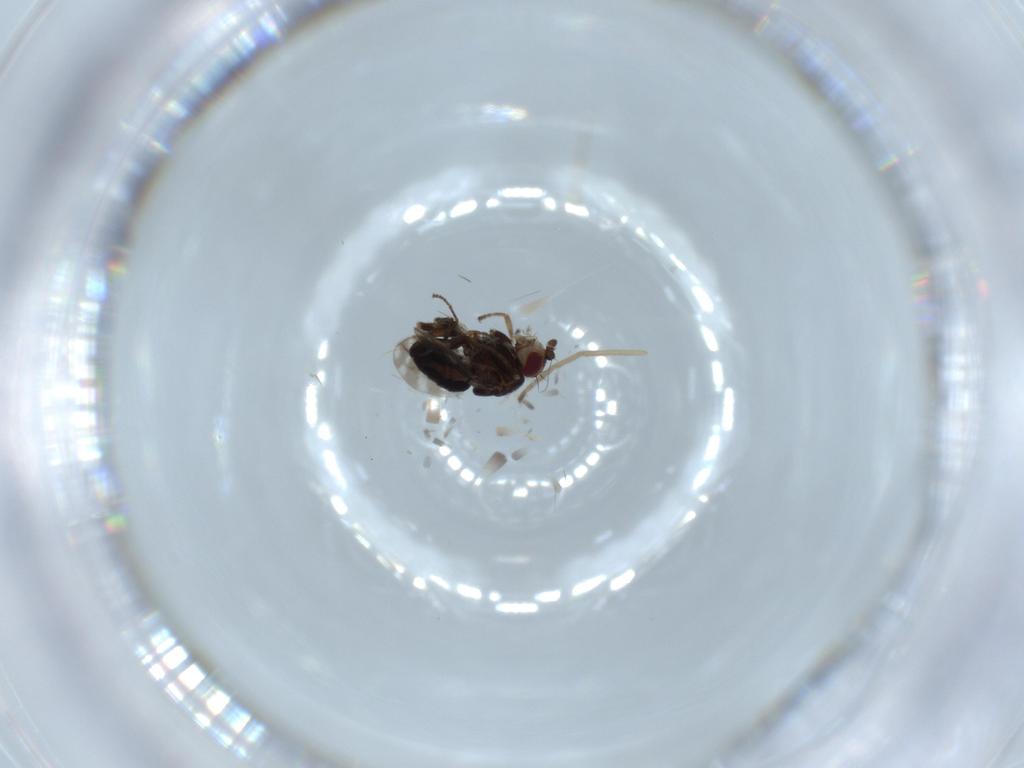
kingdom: Animalia
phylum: Arthropoda
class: Insecta
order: Diptera
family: Sphaeroceridae
